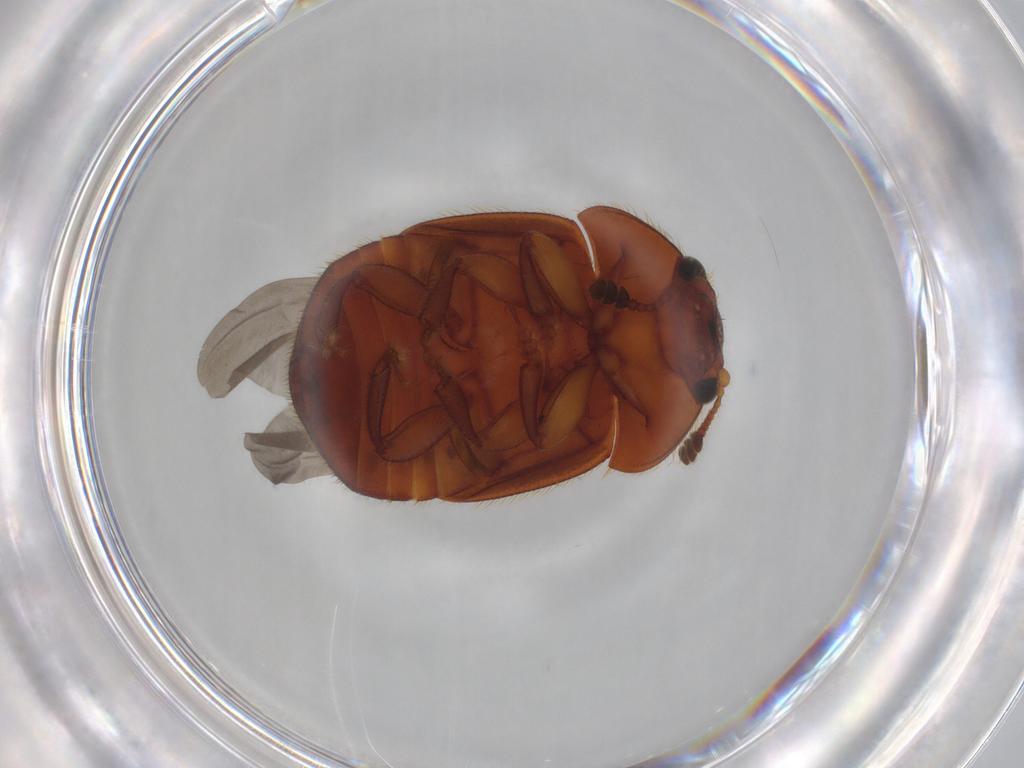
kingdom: Animalia
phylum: Arthropoda
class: Insecta
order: Coleoptera
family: Nitidulidae
